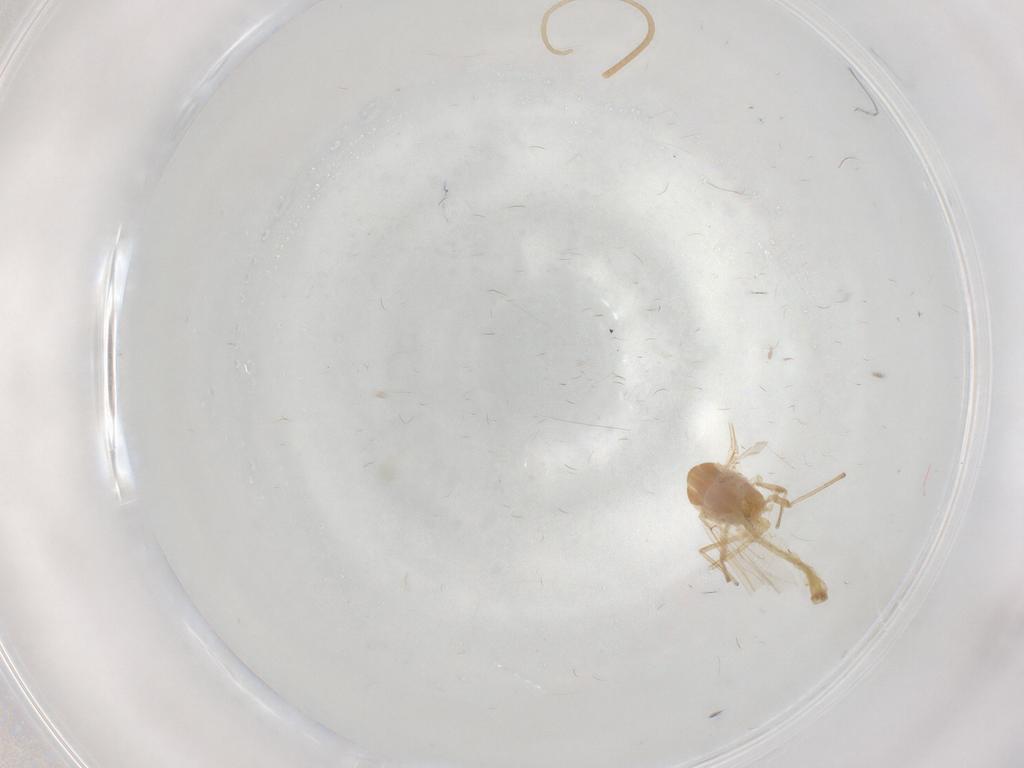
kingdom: Animalia
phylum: Arthropoda
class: Insecta
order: Diptera
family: Chironomidae
